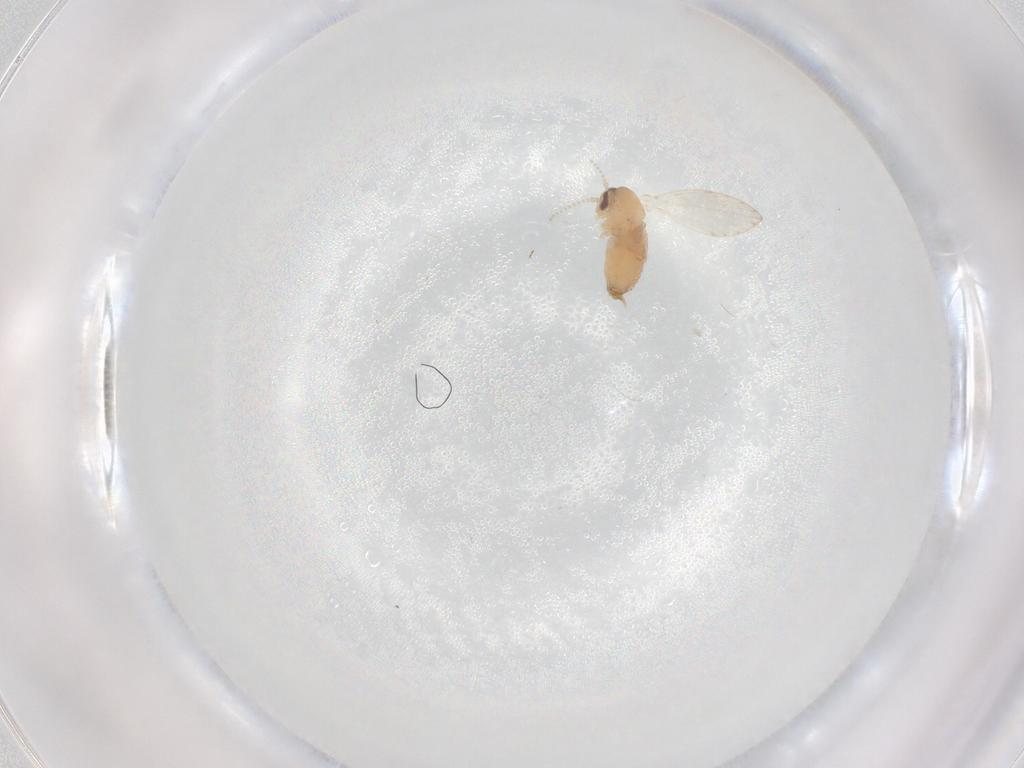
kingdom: Animalia
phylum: Arthropoda
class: Insecta
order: Diptera
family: Psychodidae
